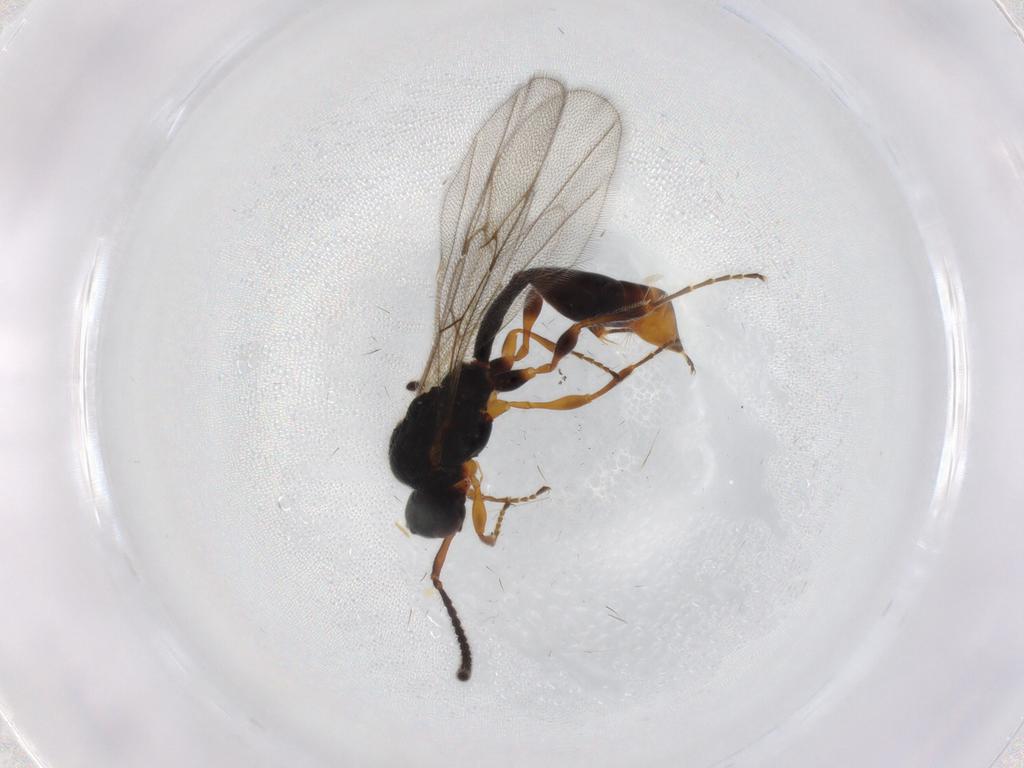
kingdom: Animalia
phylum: Arthropoda
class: Insecta
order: Hymenoptera
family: Diapriidae
